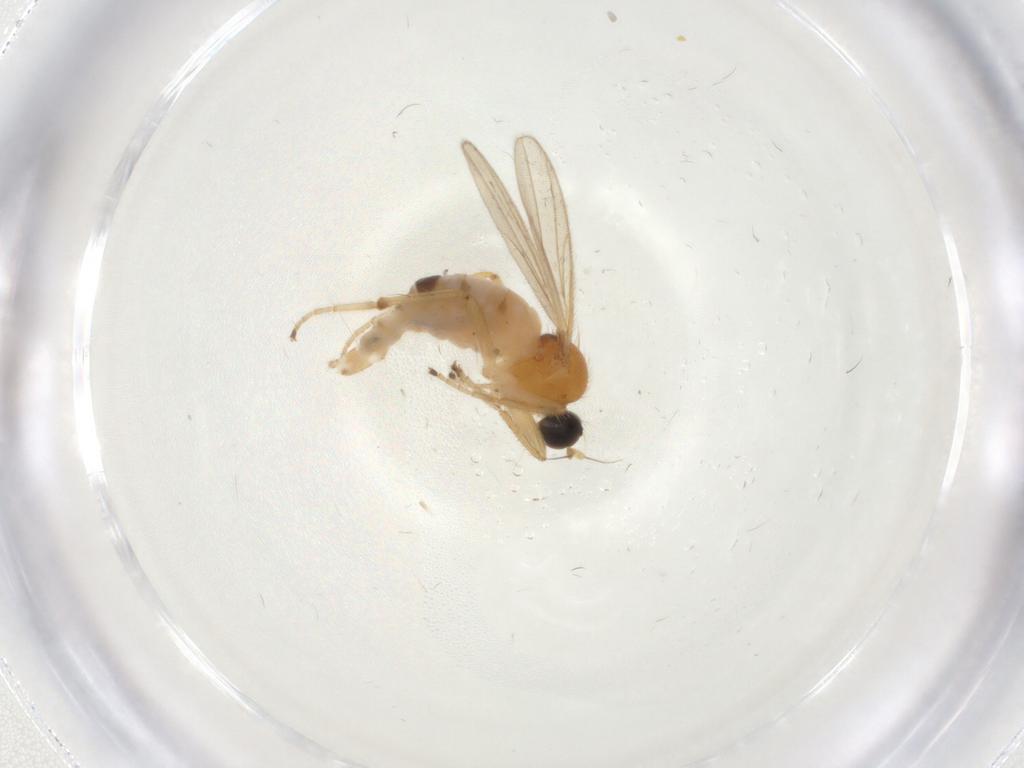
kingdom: Animalia
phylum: Arthropoda
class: Insecta
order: Diptera
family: Hybotidae
